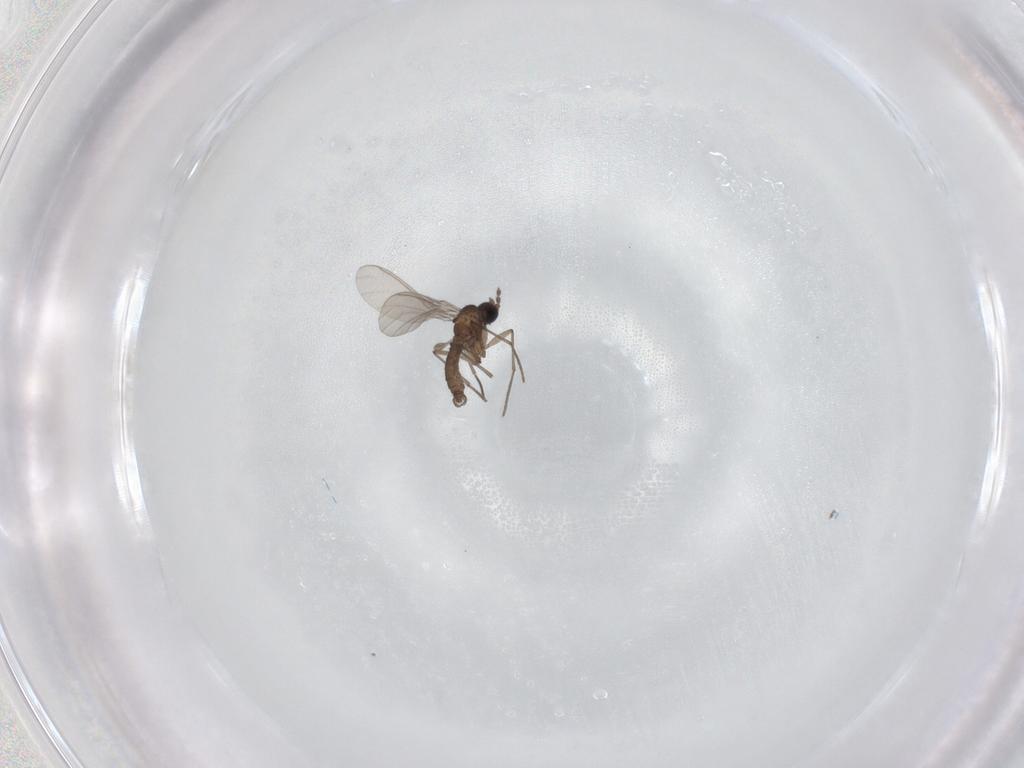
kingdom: Animalia
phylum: Arthropoda
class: Insecta
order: Diptera
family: Sciaridae
